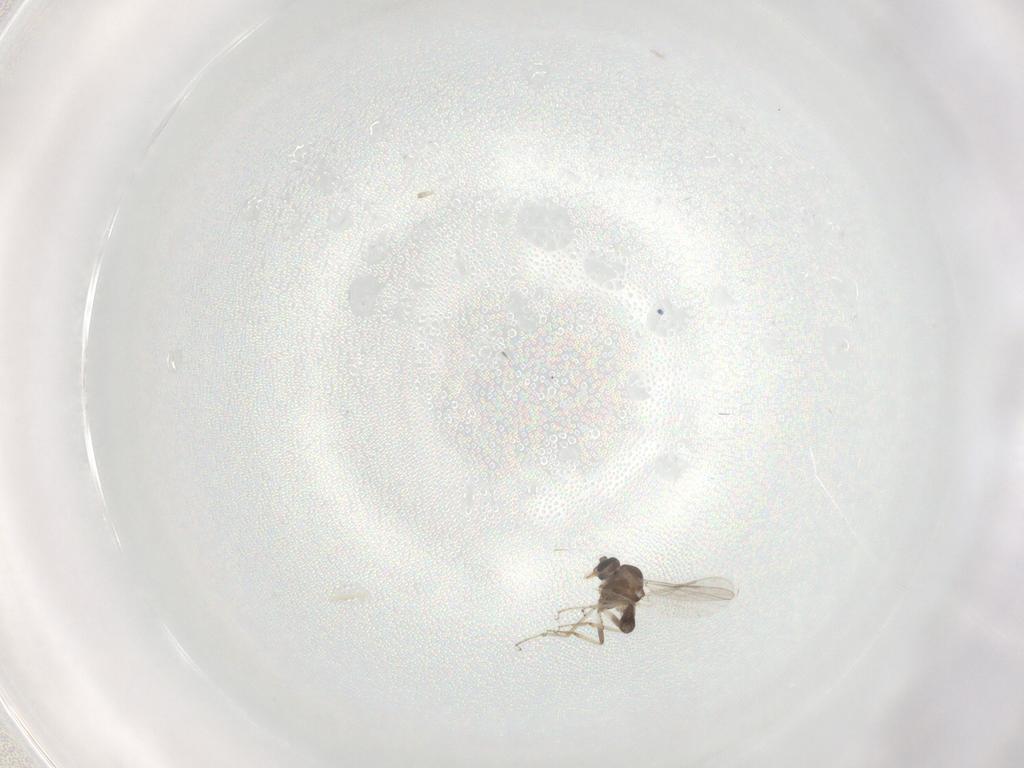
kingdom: Animalia
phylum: Arthropoda
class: Insecta
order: Diptera
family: Ceratopogonidae
